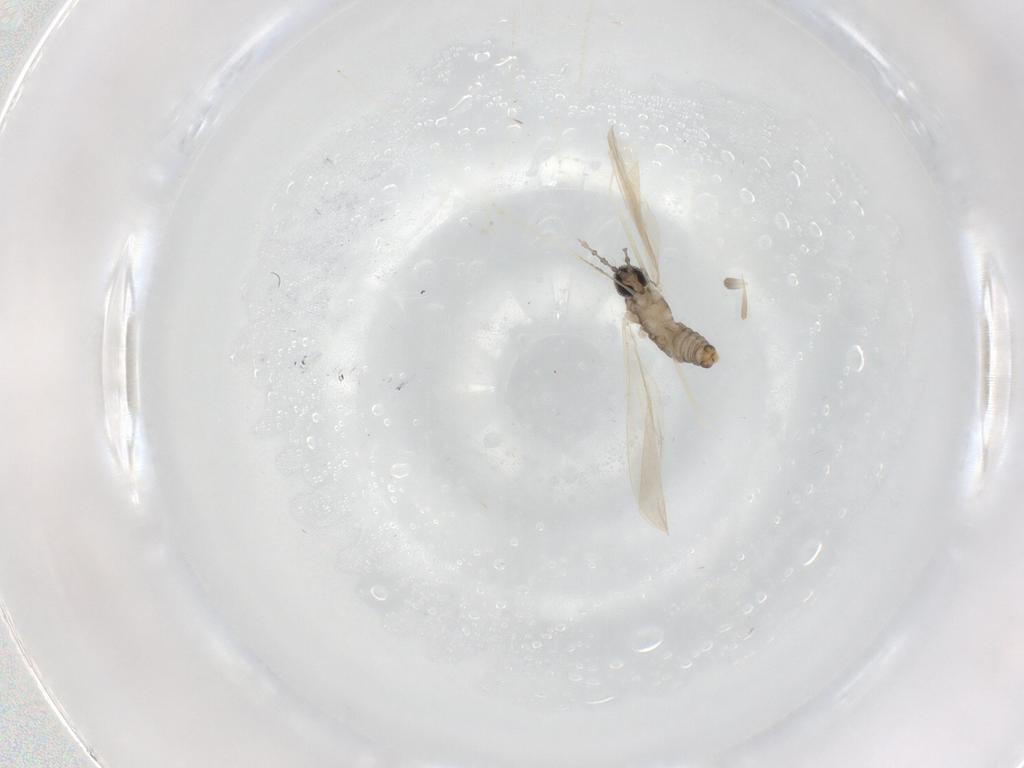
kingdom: Animalia
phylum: Arthropoda
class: Insecta
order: Diptera
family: Cecidomyiidae
